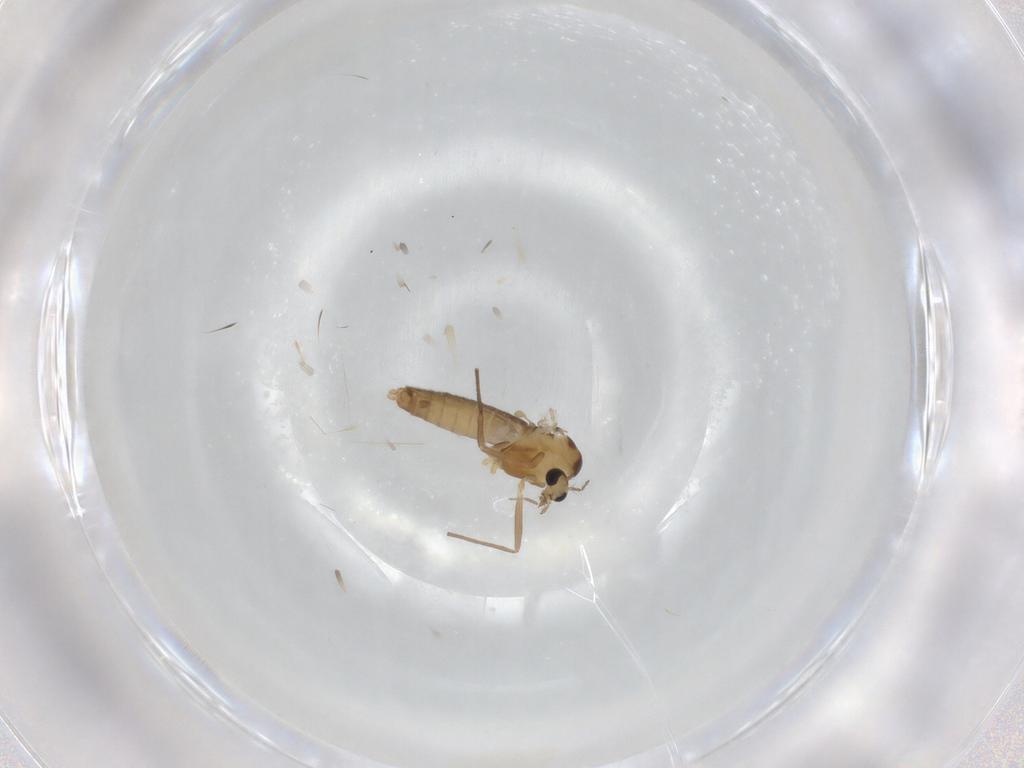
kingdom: Animalia
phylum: Arthropoda
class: Insecta
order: Diptera
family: Chironomidae
